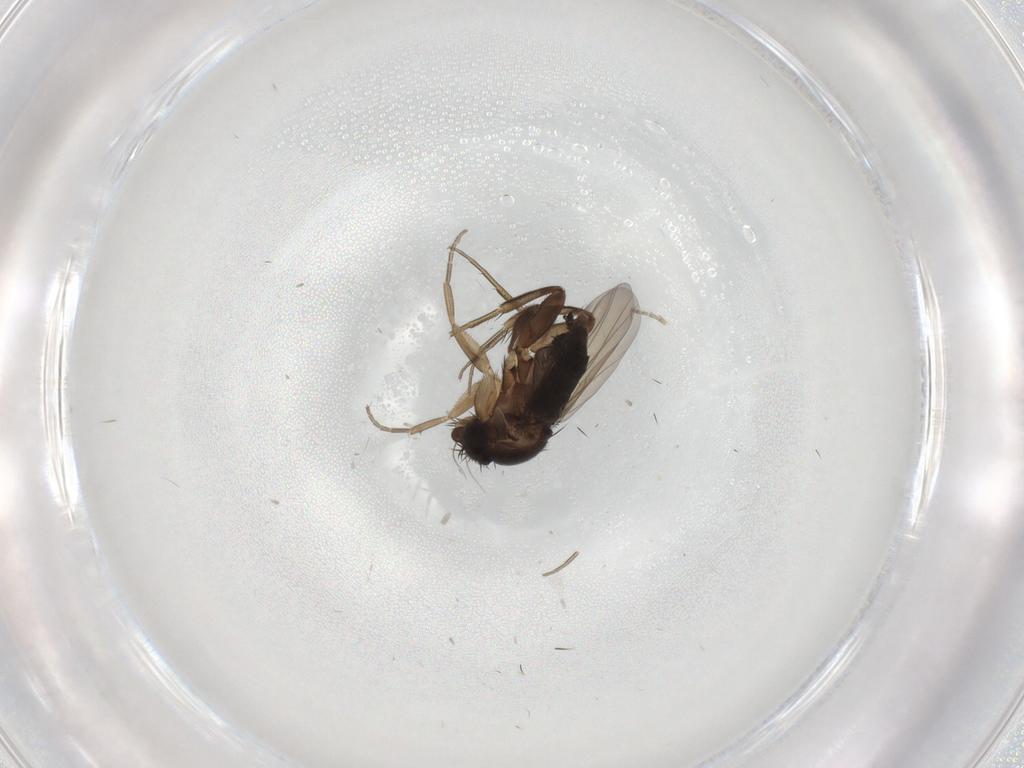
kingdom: Animalia
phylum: Arthropoda
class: Insecta
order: Diptera
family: Phoridae
